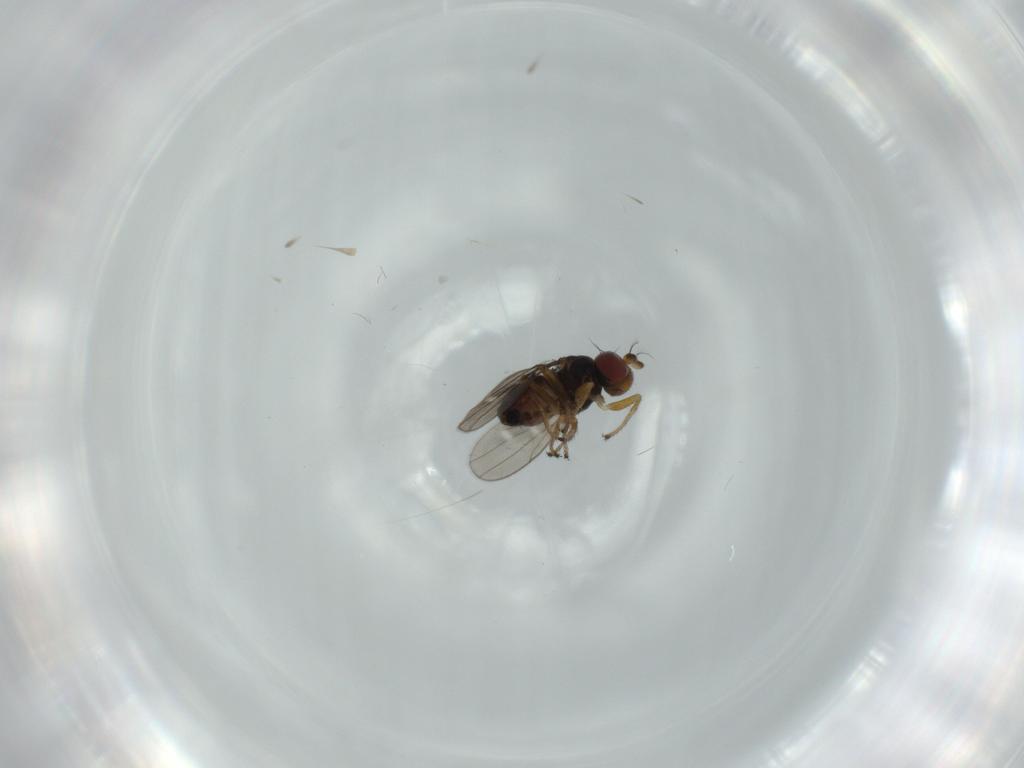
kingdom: Animalia
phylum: Arthropoda
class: Insecta
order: Diptera
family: Ephydridae
